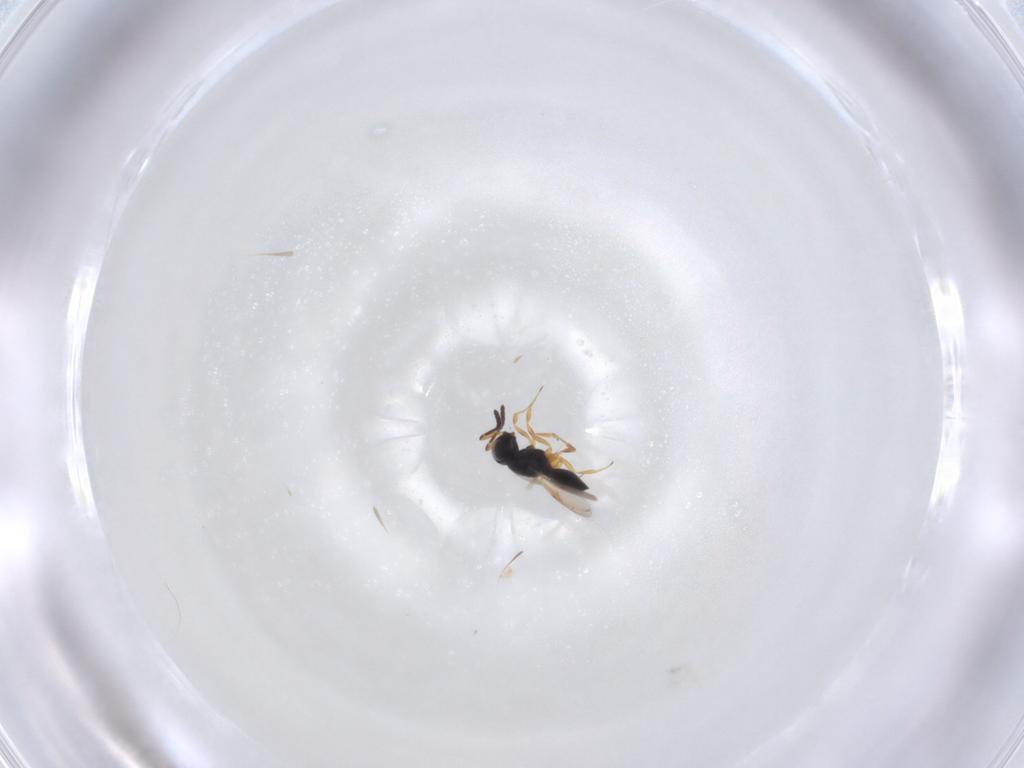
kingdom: Animalia
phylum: Arthropoda
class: Insecta
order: Hymenoptera
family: Scelionidae
